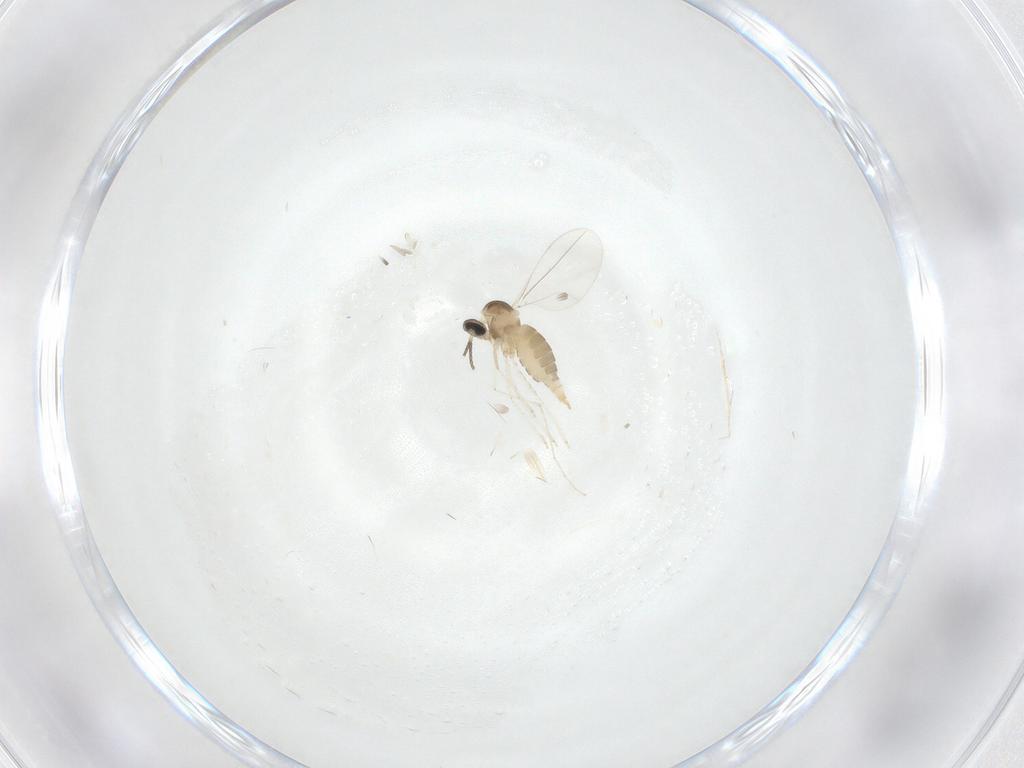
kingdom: Animalia
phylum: Arthropoda
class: Insecta
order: Diptera
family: Cecidomyiidae
